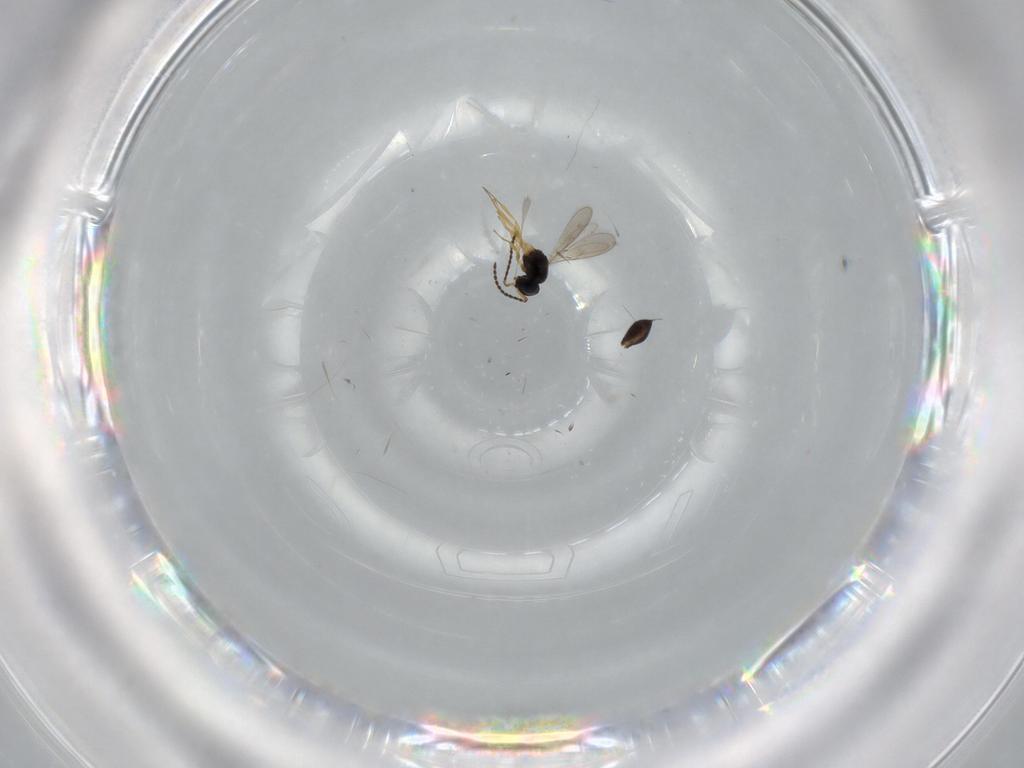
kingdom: Animalia
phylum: Arthropoda
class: Insecta
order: Hymenoptera
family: Scelionidae
